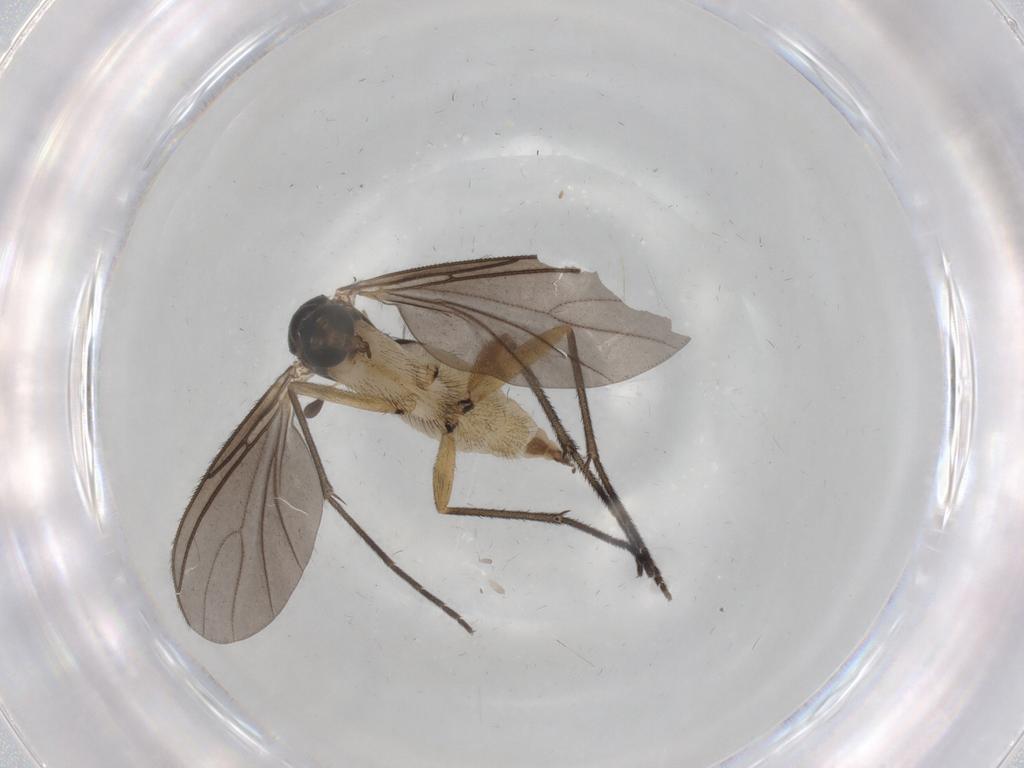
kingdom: Animalia
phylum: Arthropoda
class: Insecta
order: Diptera
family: Sciaridae
